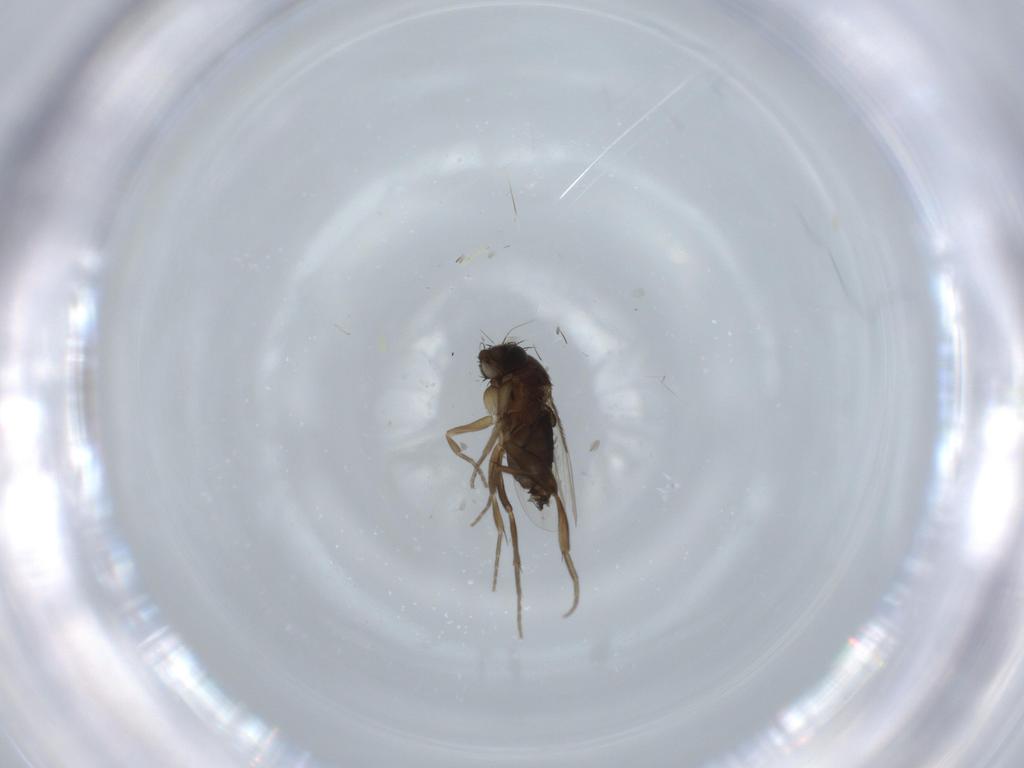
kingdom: Animalia
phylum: Arthropoda
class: Insecta
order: Diptera
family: Phoridae
